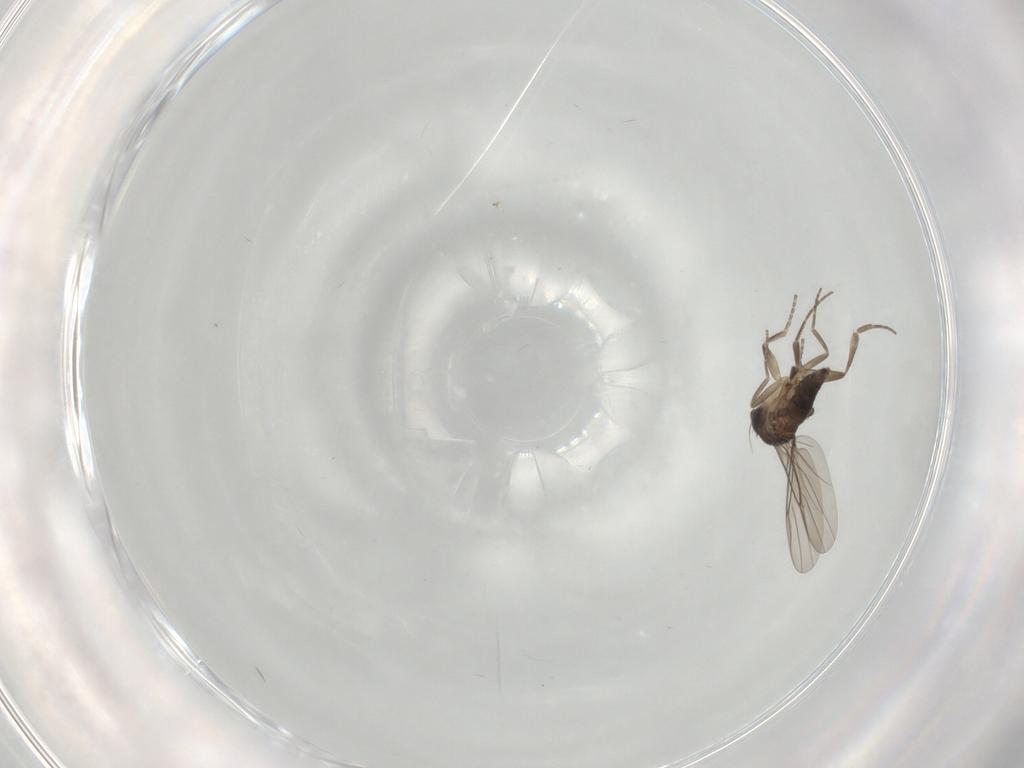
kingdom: Animalia
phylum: Arthropoda
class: Insecta
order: Diptera
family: Phoridae
